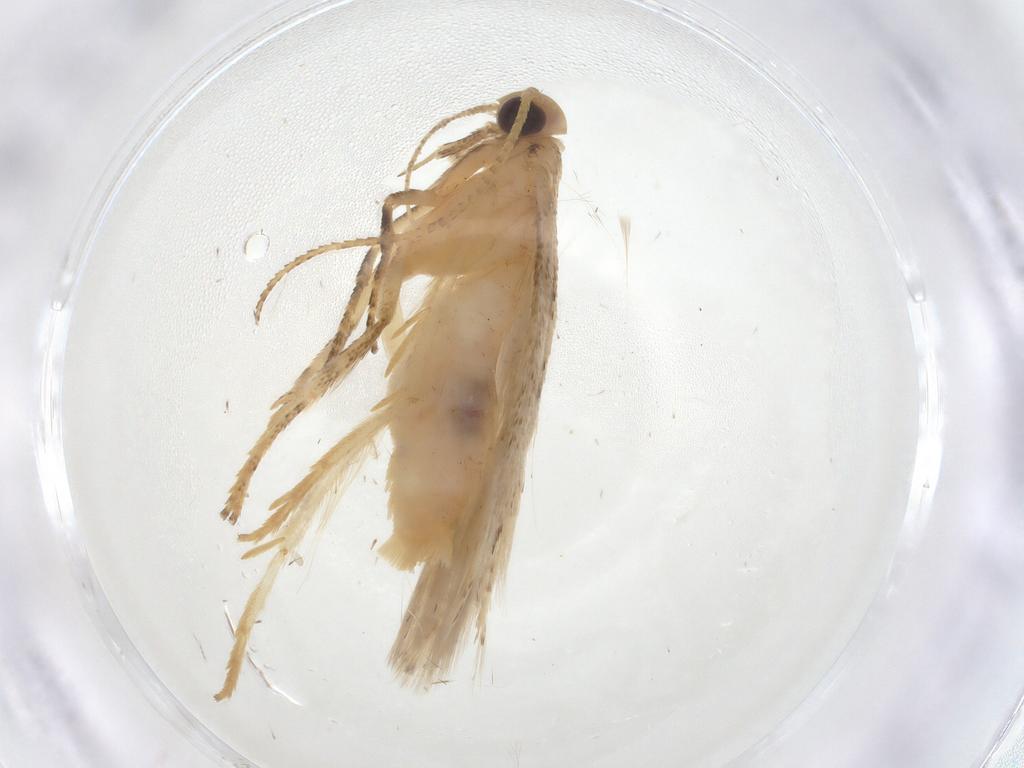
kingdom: Animalia
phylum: Arthropoda
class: Insecta
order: Lepidoptera
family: Gelechiidae
